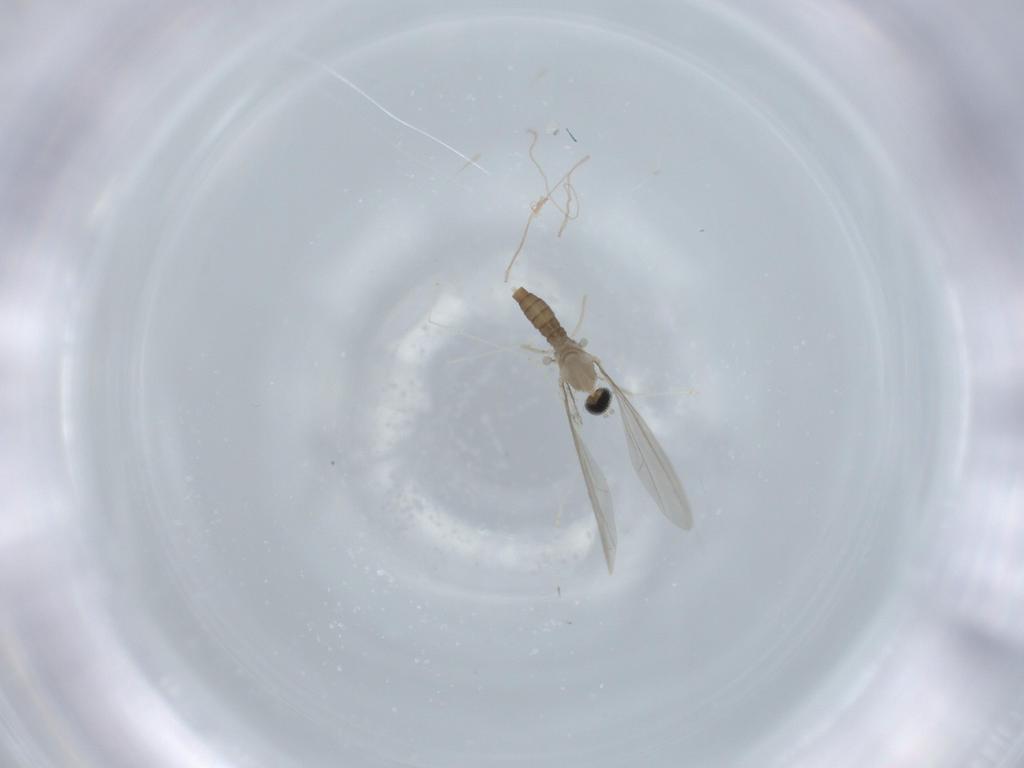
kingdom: Animalia
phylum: Arthropoda
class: Insecta
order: Diptera
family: Cecidomyiidae
